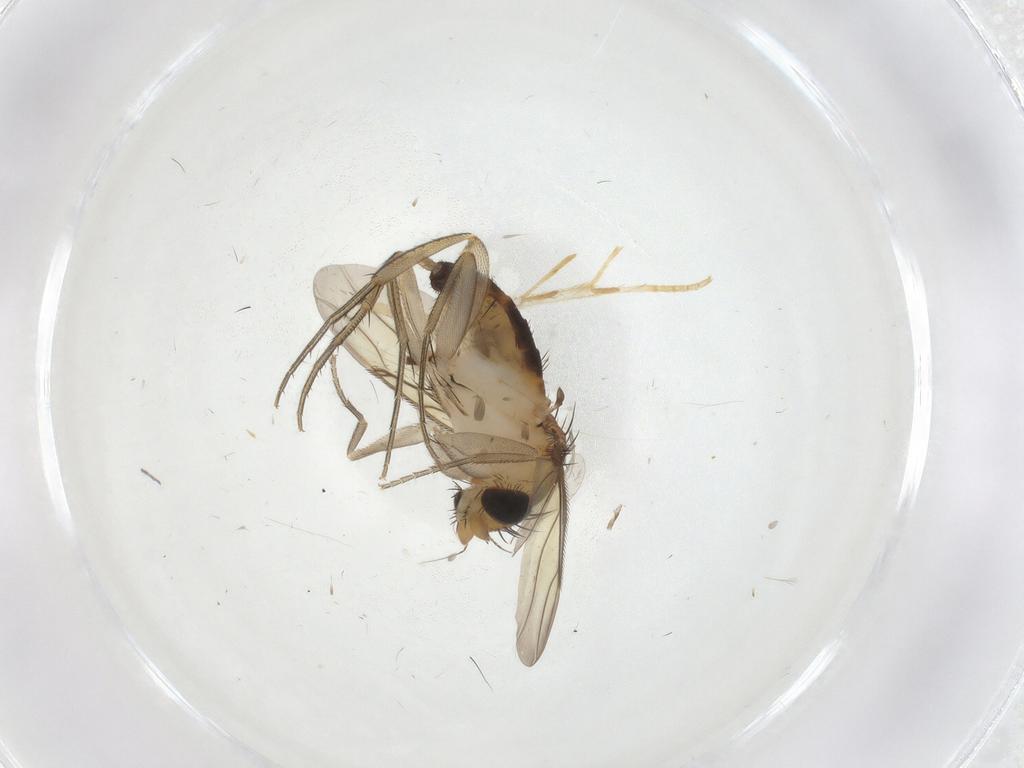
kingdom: Animalia
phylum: Arthropoda
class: Insecta
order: Diptera
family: Phoridae
